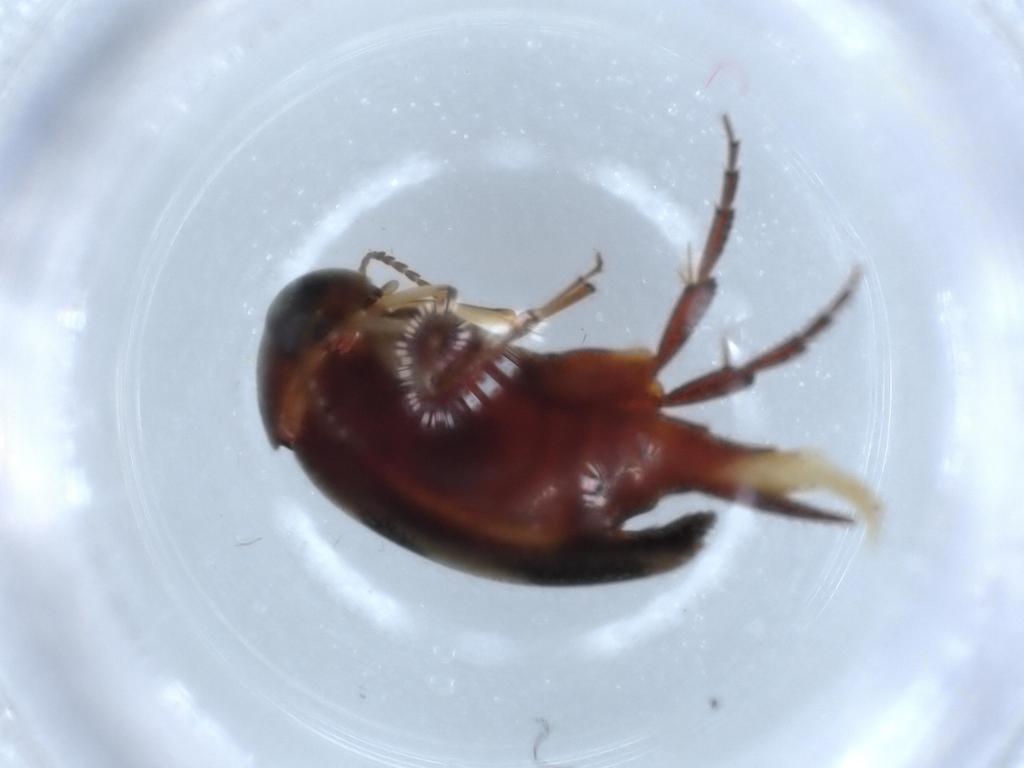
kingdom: Animalia
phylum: Arthropoda
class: Insecta
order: Coleoptera
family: Mordellidae
